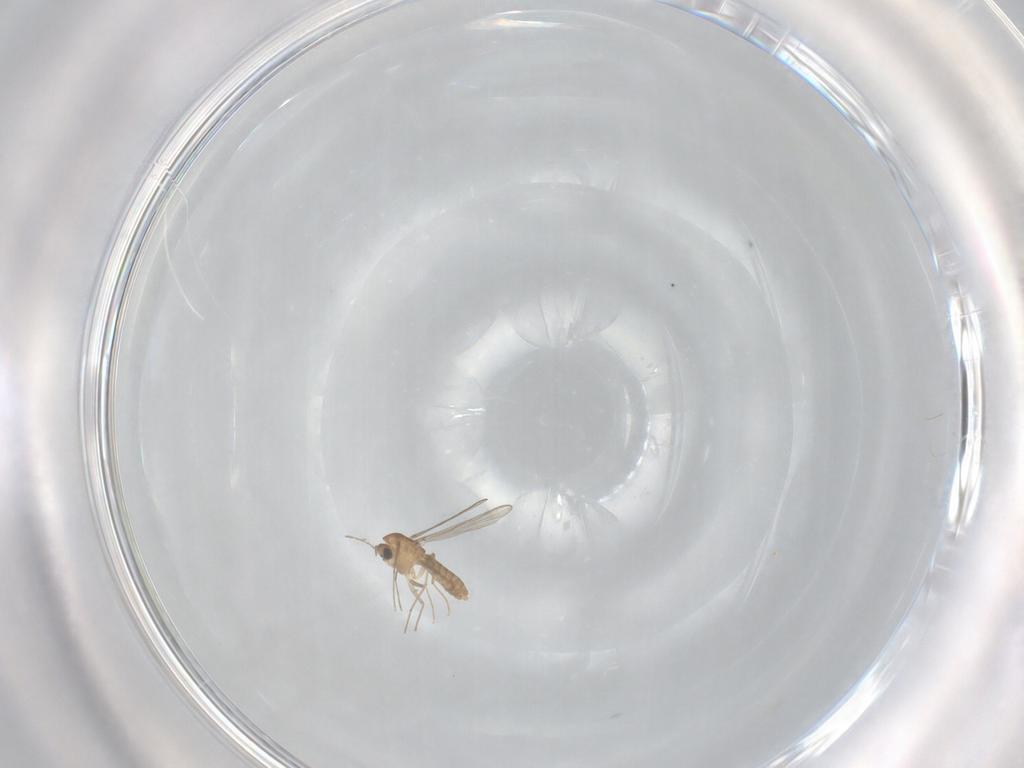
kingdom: Animalia
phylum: Arthropoda
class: Insecta
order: Diptera
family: Chironomidae
